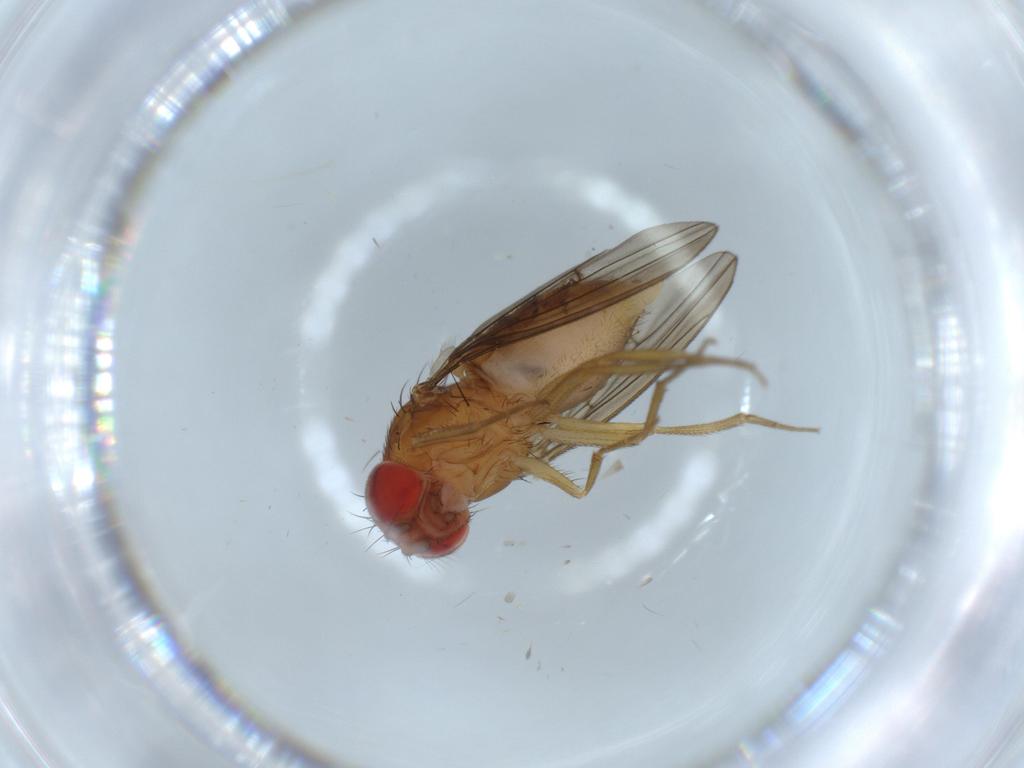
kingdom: Animalia
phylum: Arthropoda
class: Insecta
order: Diptera
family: Drosophilidae
